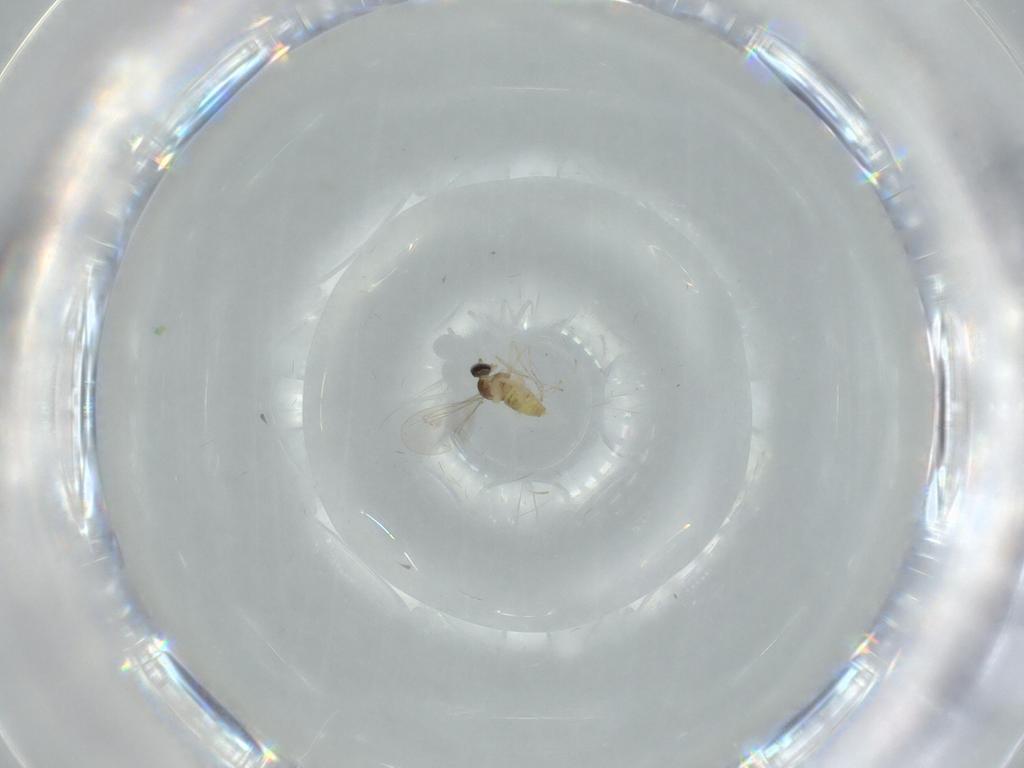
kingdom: Animalia
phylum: Arthropoda
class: Insecta
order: Diptera
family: Cecidomyiidae
